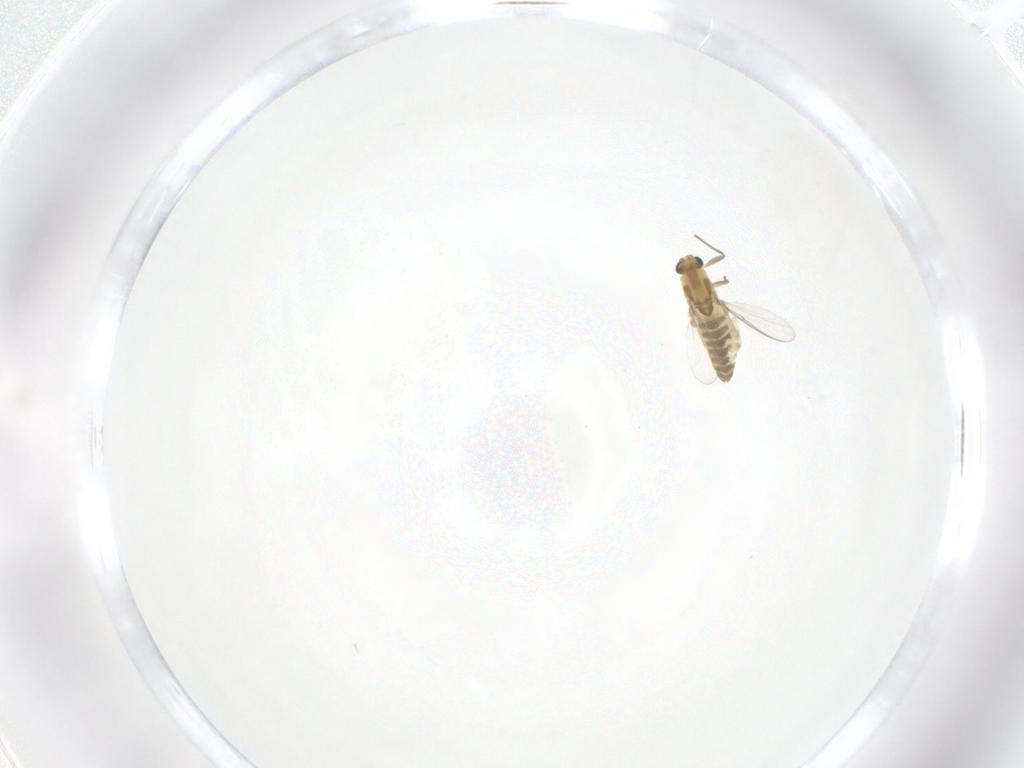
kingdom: Animalia
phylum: Arthropoda
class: Insecta
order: Diptera
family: Chironomidae
